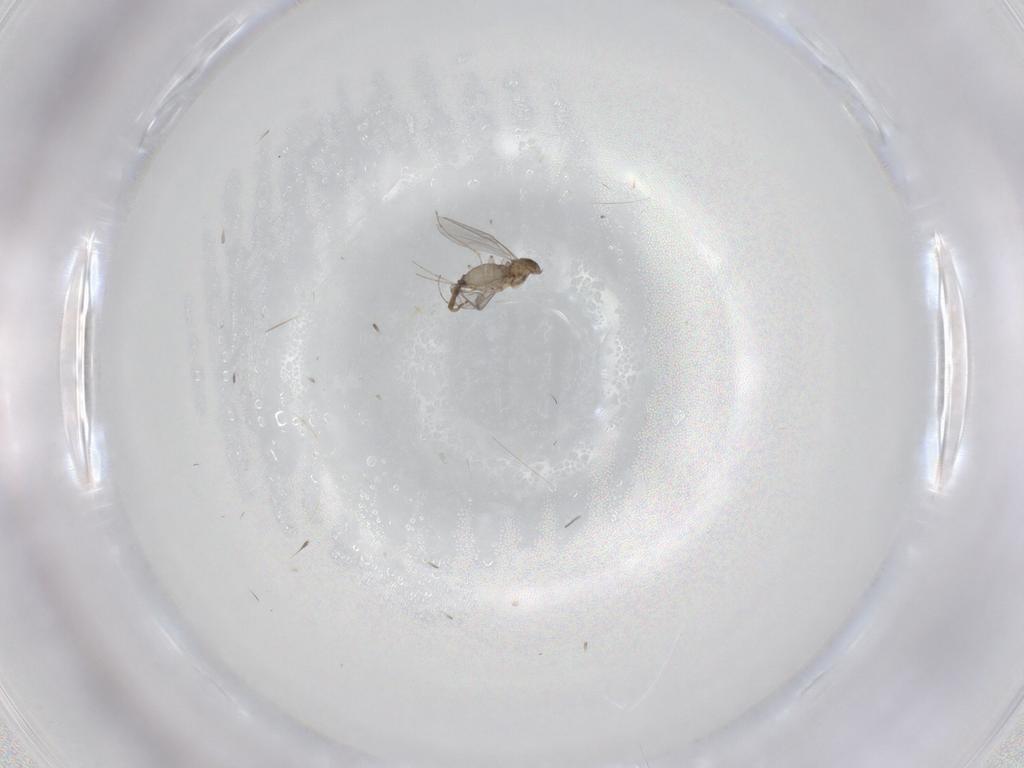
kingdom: Animalia
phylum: Arthropoda
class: Insecta
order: Diptera
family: Cecidomyiidae
